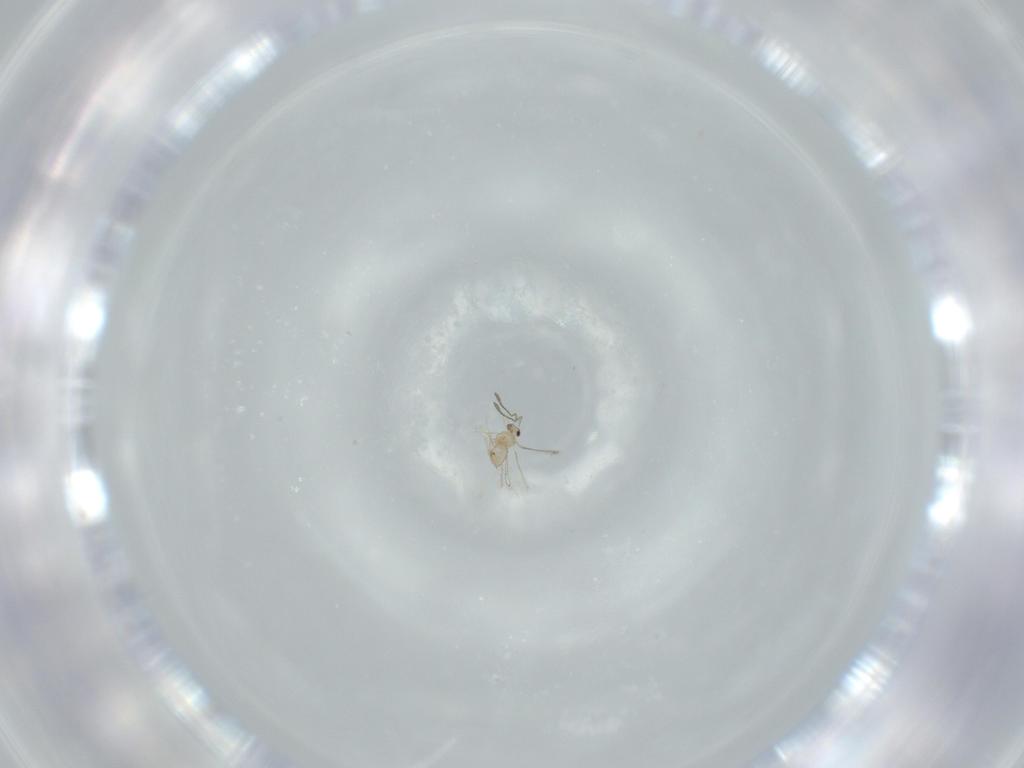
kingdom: Animalia
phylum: Arthropoda
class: Insecta
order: Hymenoptera
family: Mymaridae
